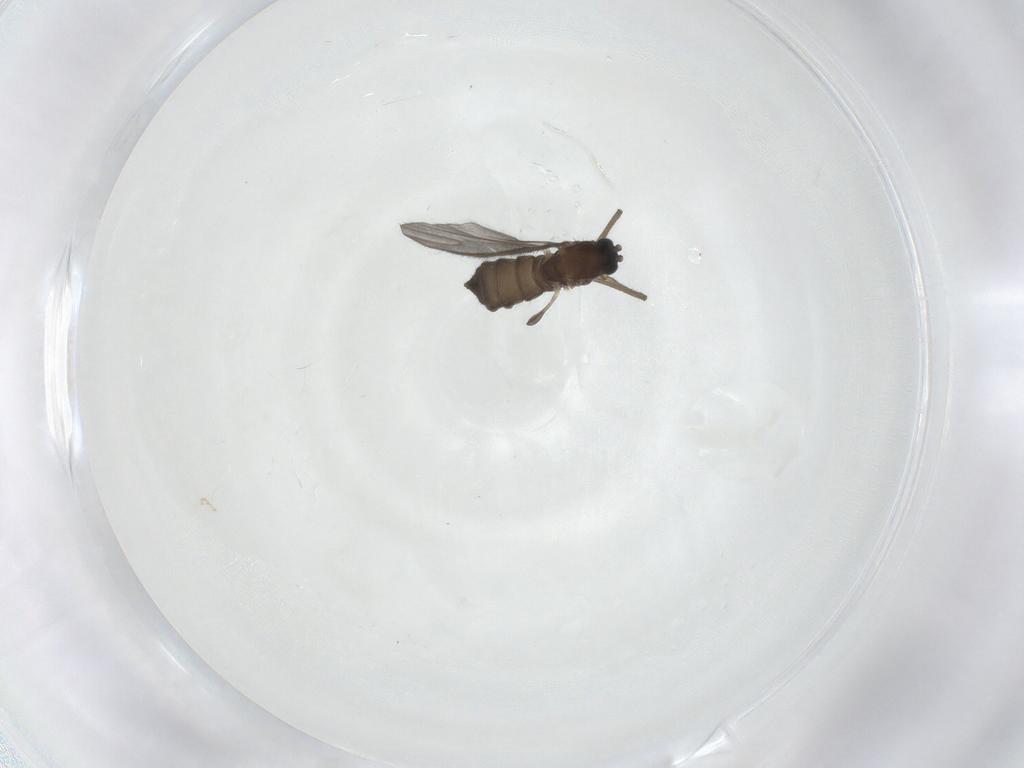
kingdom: Animalia
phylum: Arthropoda
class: Insecta
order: Diptera
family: Sciaridae
